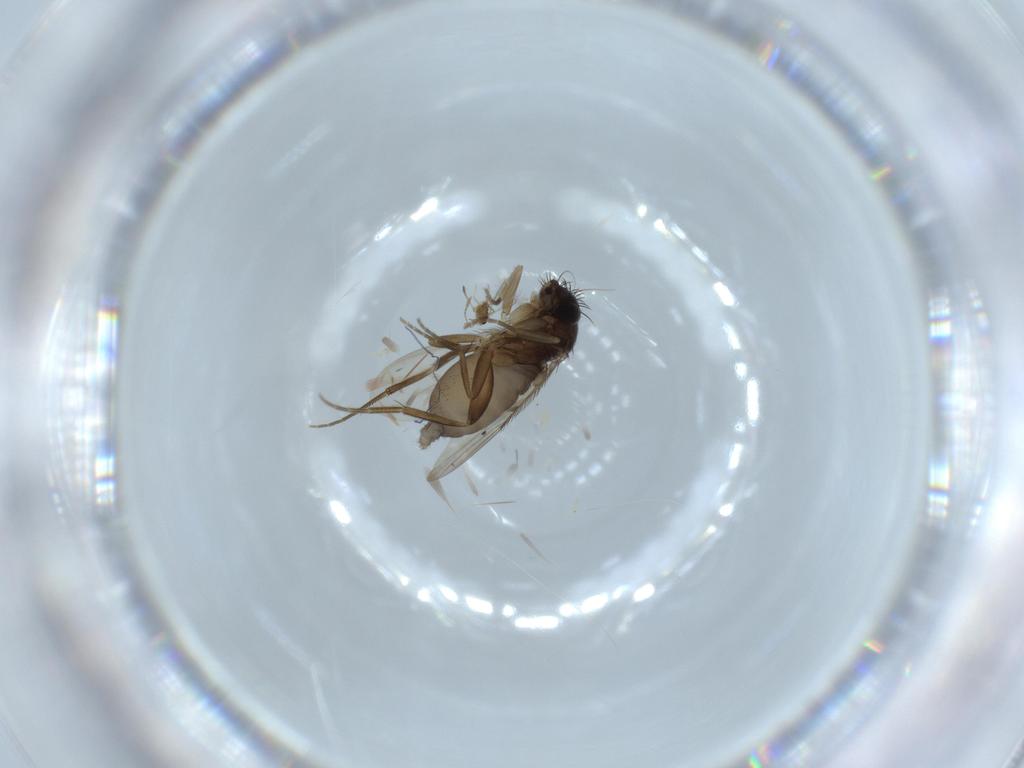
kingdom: Animalia
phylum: Arthropoda
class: Insecta
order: Diptera
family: Phoridae
